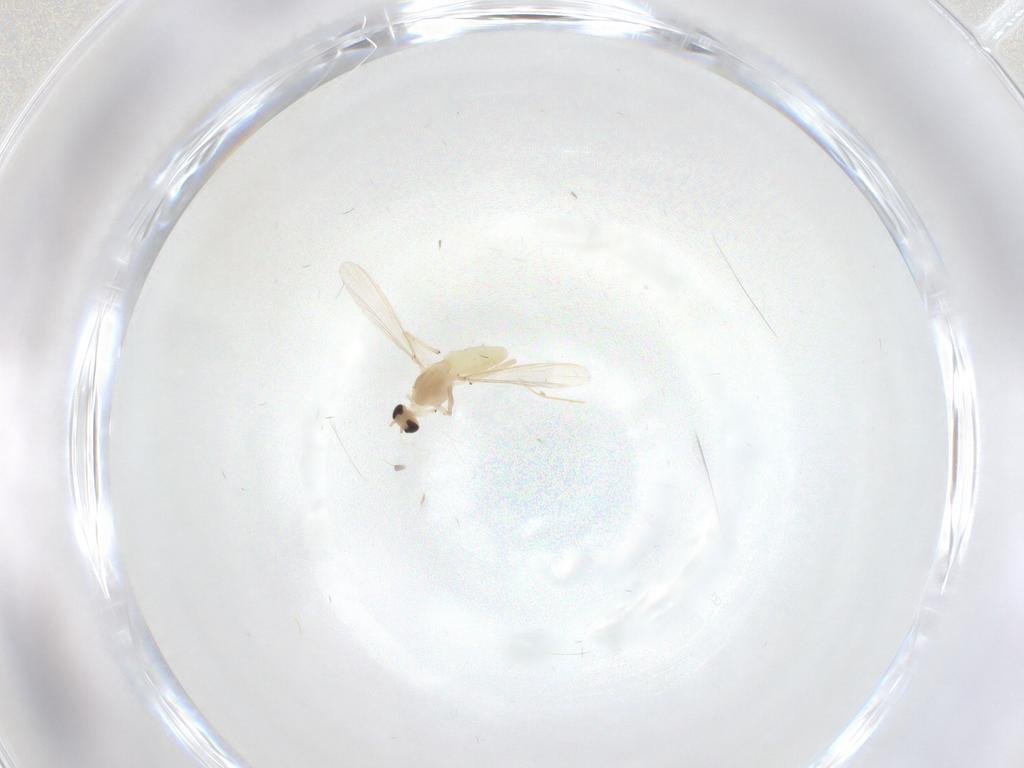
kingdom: Animalia
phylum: Arthropoda
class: Insecta
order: Diptera
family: Chironomidae
